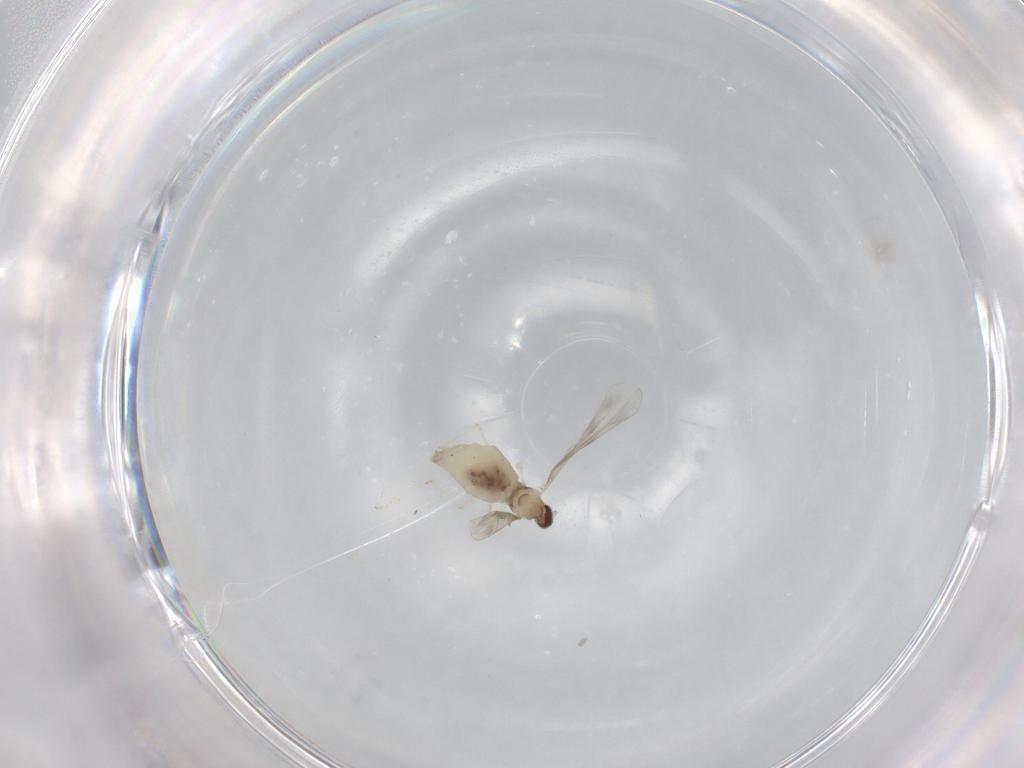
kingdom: Animalia
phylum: Arthropoda
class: Insecta
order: Diptera
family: Cecidomyiidae
